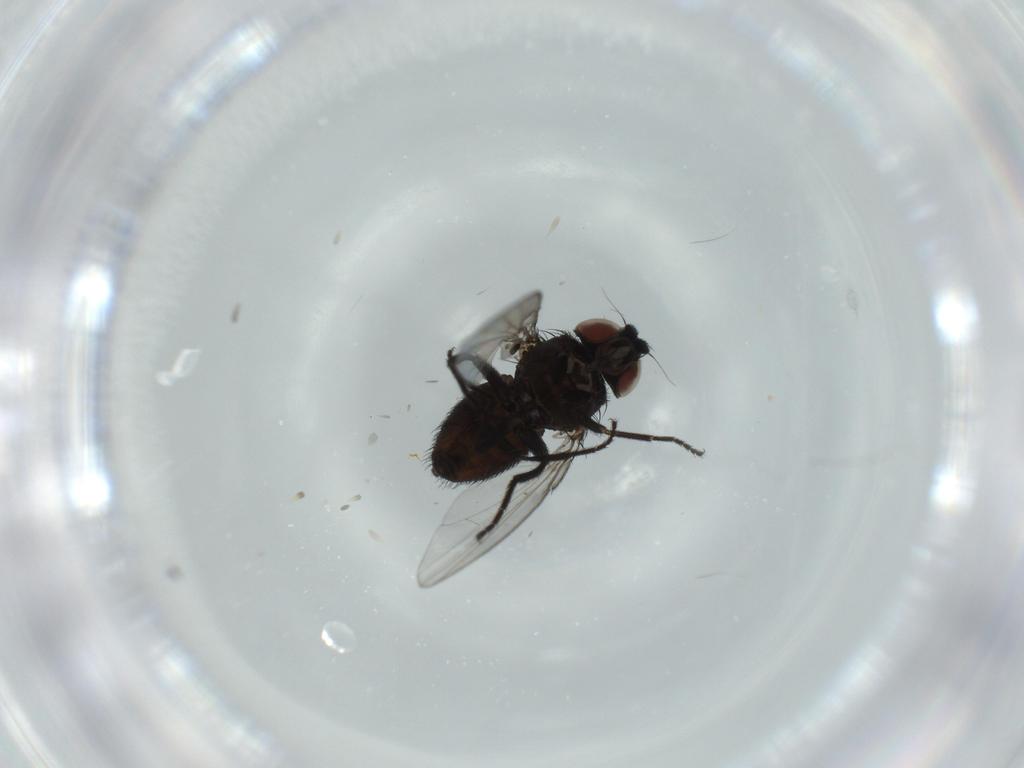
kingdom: Animalia
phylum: Arthropoda
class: Insecta
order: Diptera
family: Milichiidae
